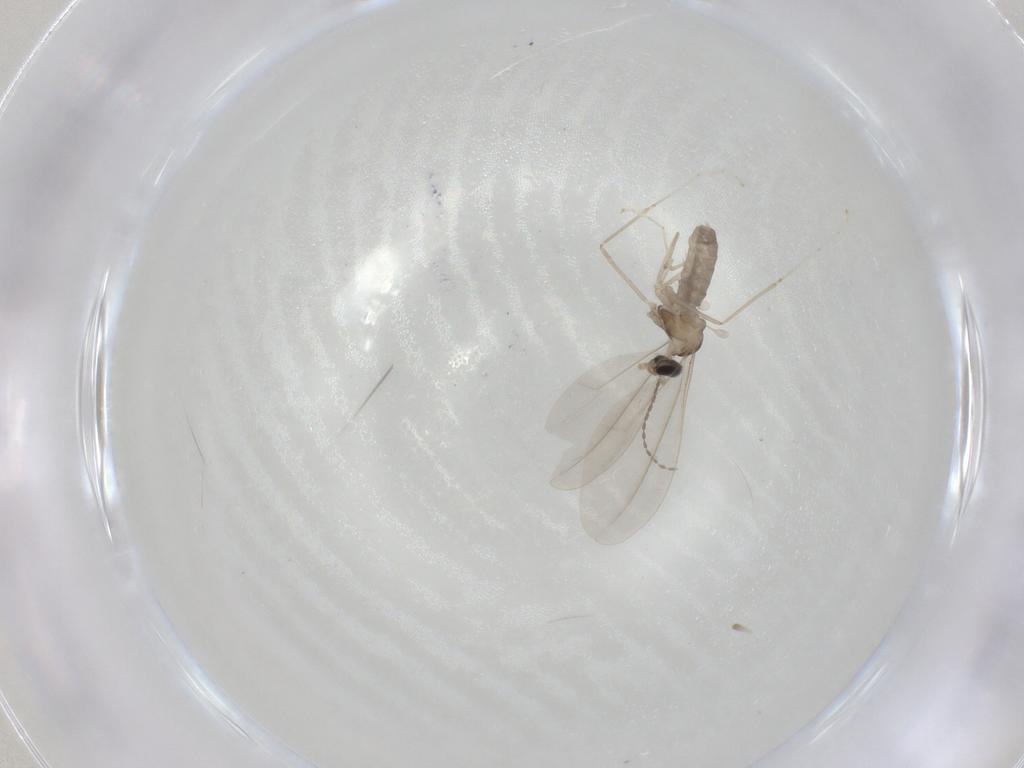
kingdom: Animalia
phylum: Arthropoda
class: Insecta
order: Diptera
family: Cecidomyiidae
